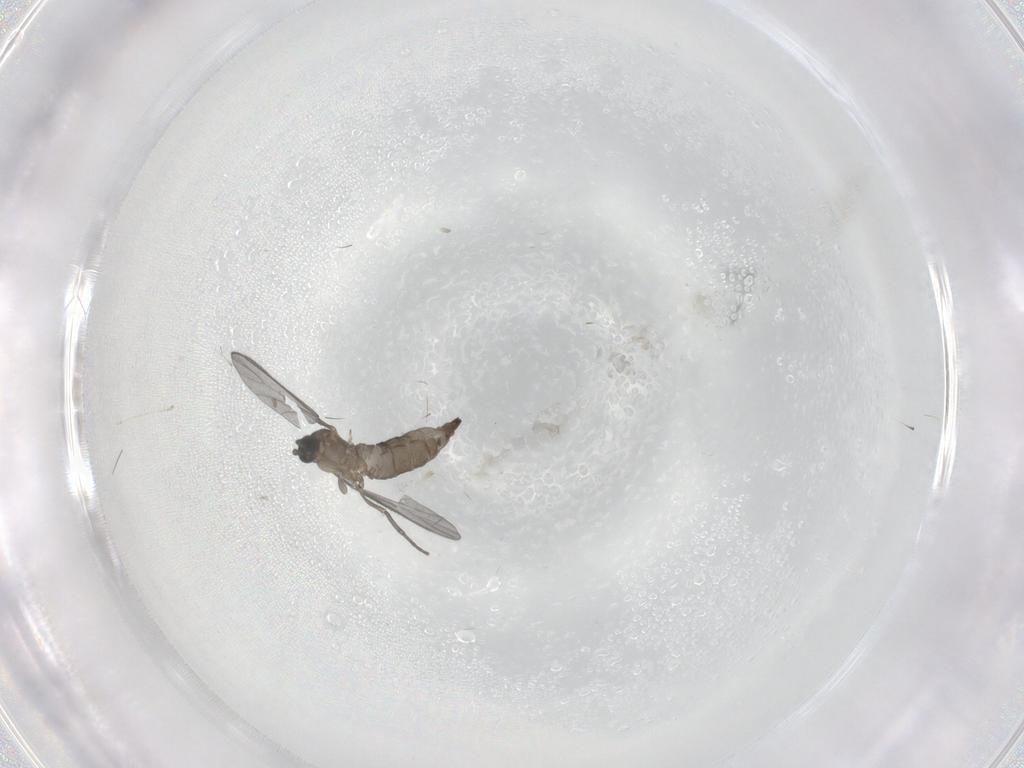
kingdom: Animalia
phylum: Arthropoda
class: Insecta
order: Diptera
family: Sciaridae
